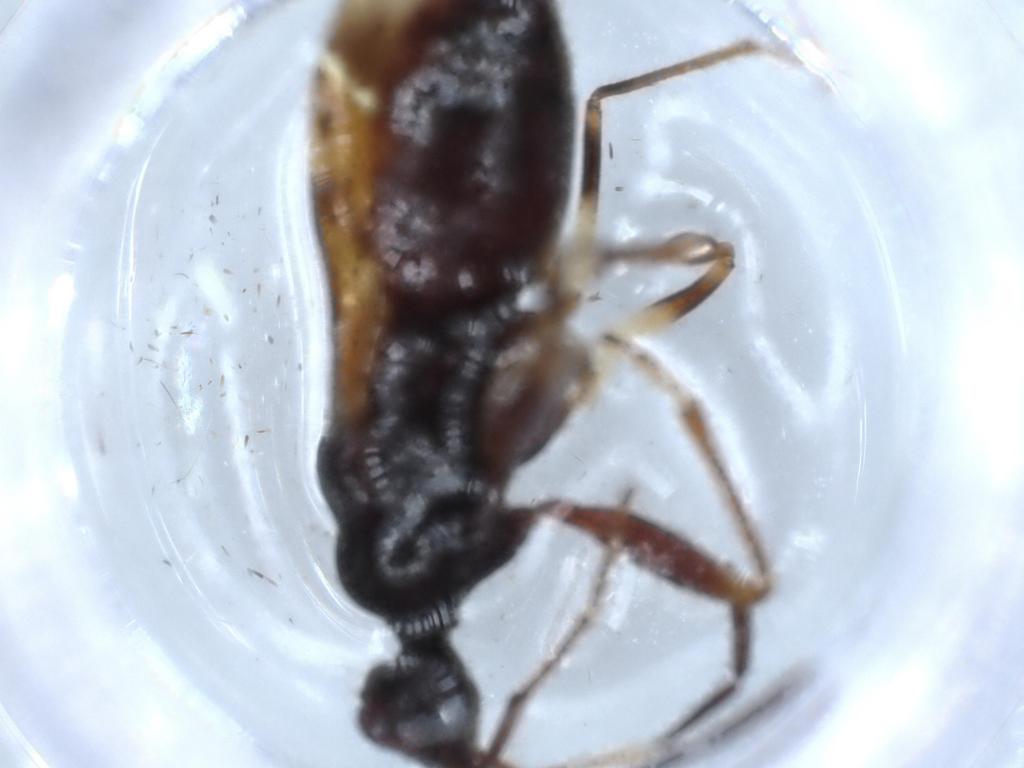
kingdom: Animalia
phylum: Arthropoda
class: Insecta
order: Hemiptera
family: Rhyparochromidae
